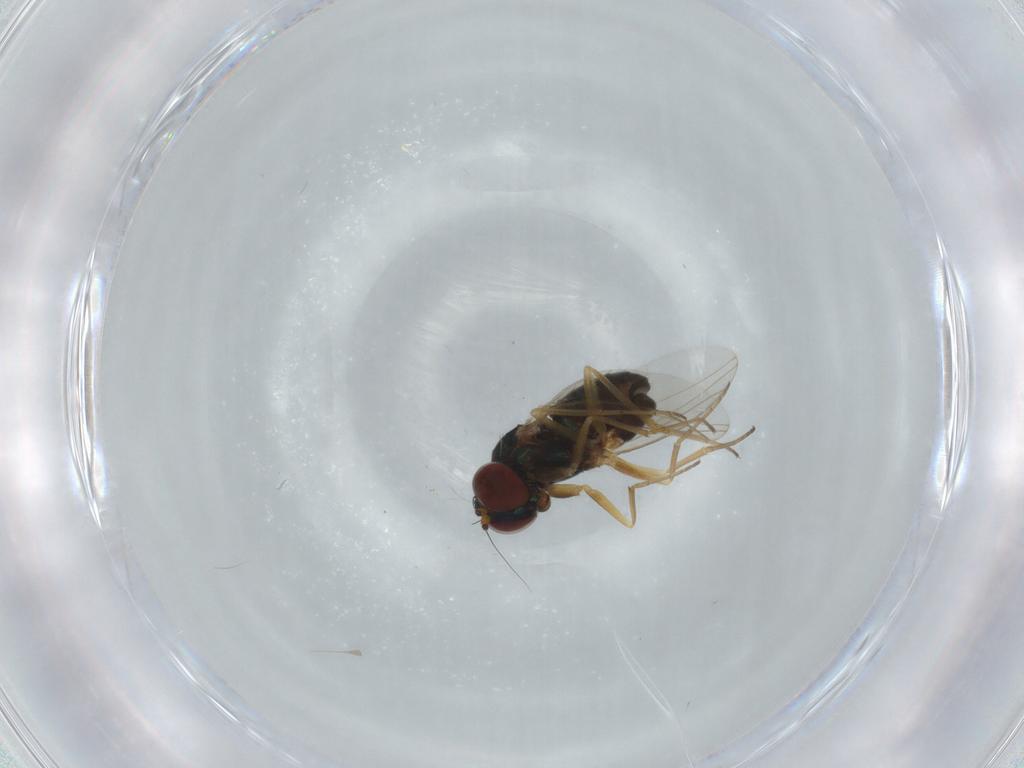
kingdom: Animalia
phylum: Arthropoda
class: Insecta
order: Diptera
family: Dolichopodidae
